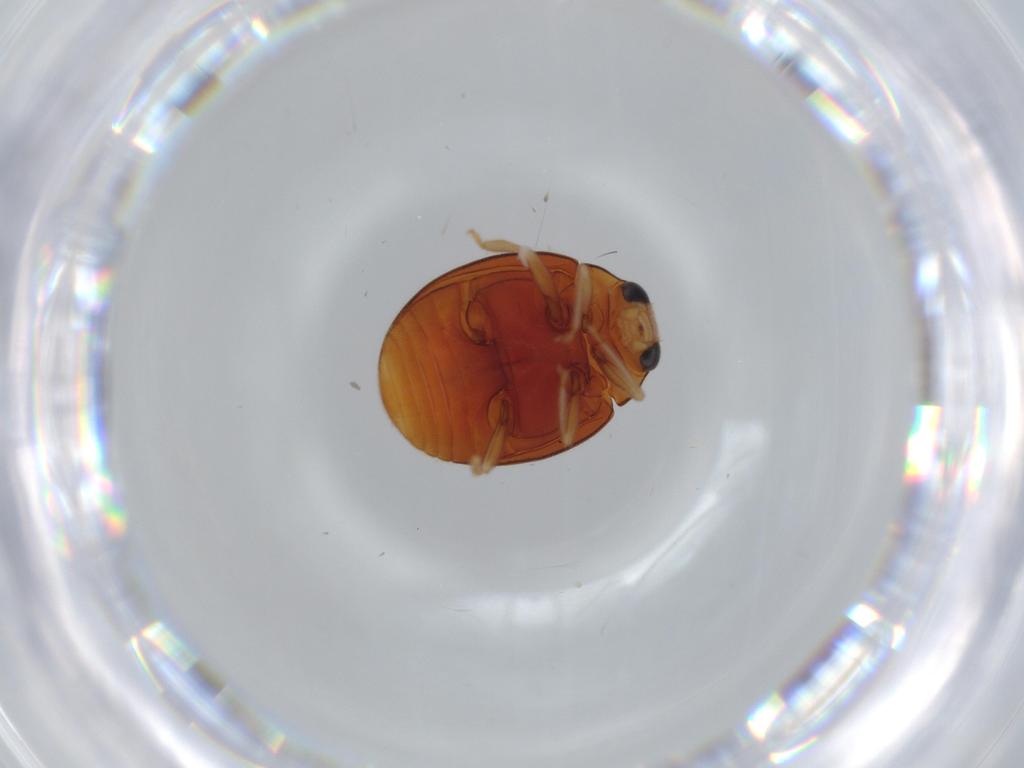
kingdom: Animalia
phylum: Arthropoda
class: Insecta
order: Coleoptera
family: Coccinellidae
